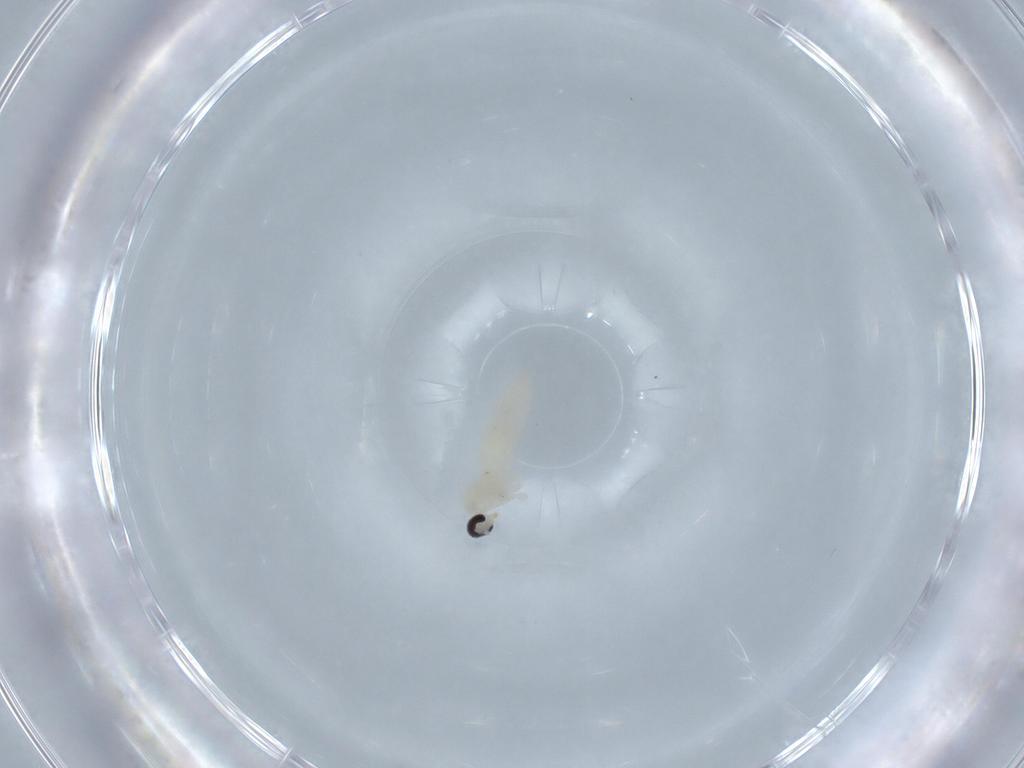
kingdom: Animalia
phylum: Arthropoda
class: Insecta
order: Diptera
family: Cecidomyiidae
